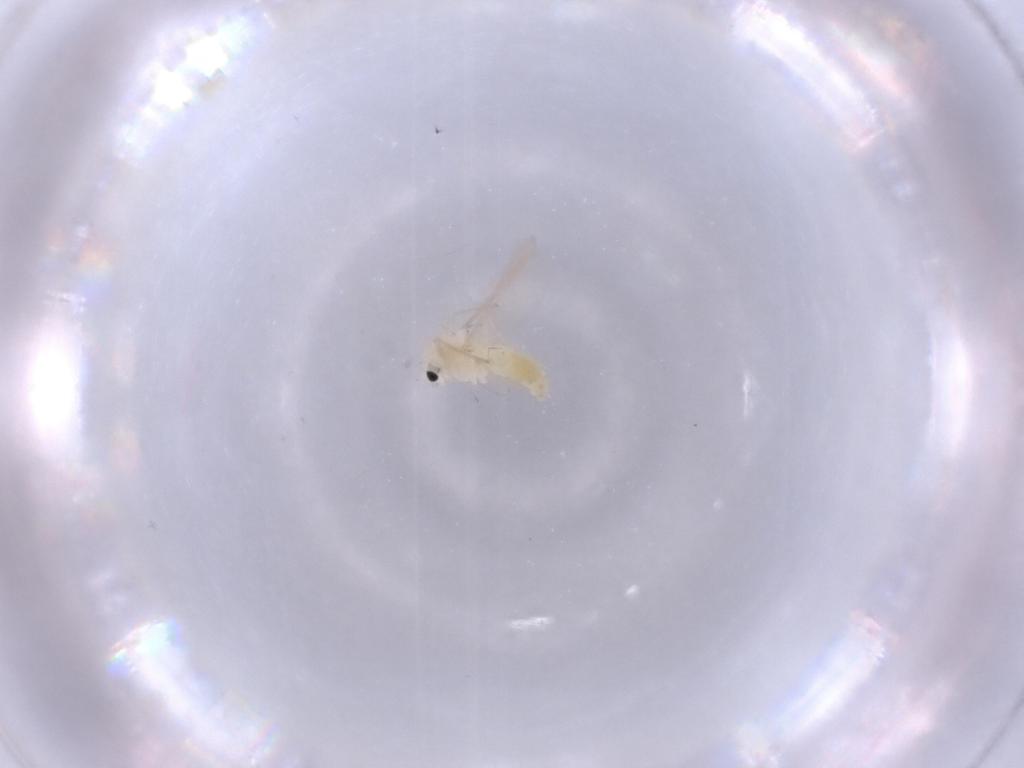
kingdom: Animalia
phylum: Arthropoda
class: Insecta
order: Diptera
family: Chironomidae
